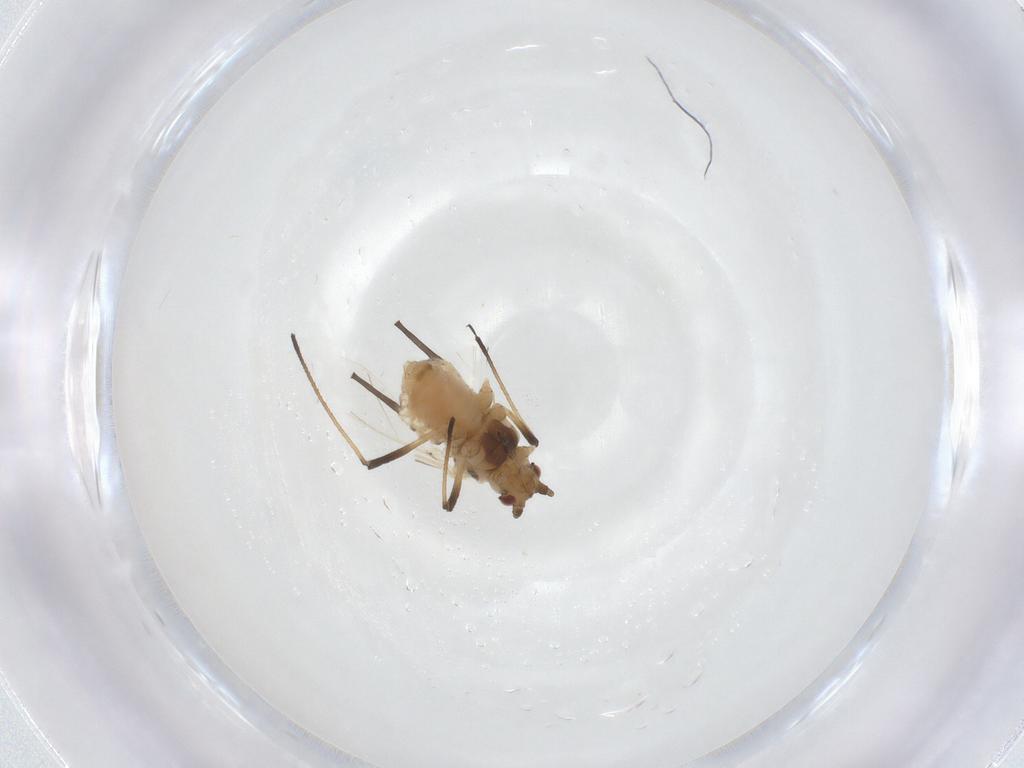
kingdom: Animalia
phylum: Arthropoda
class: Insecta
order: Hemiptera
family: Aphididae
